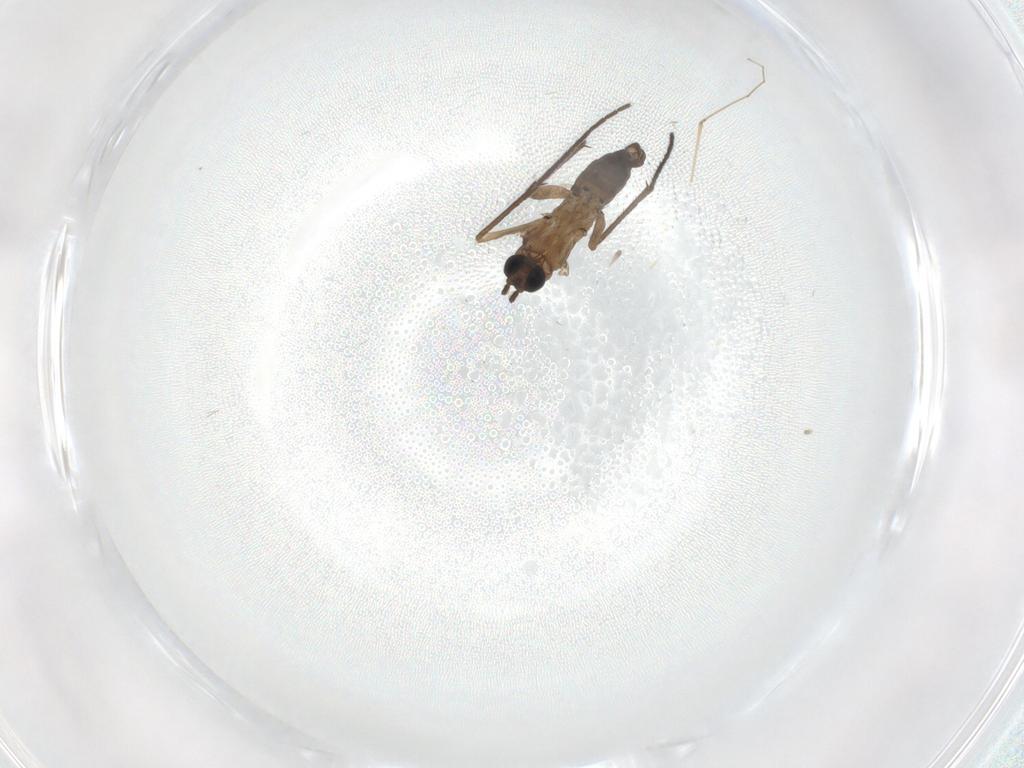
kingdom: Animalia
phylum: Arthropoda
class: Insecta
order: Diptera
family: Sciaridae
